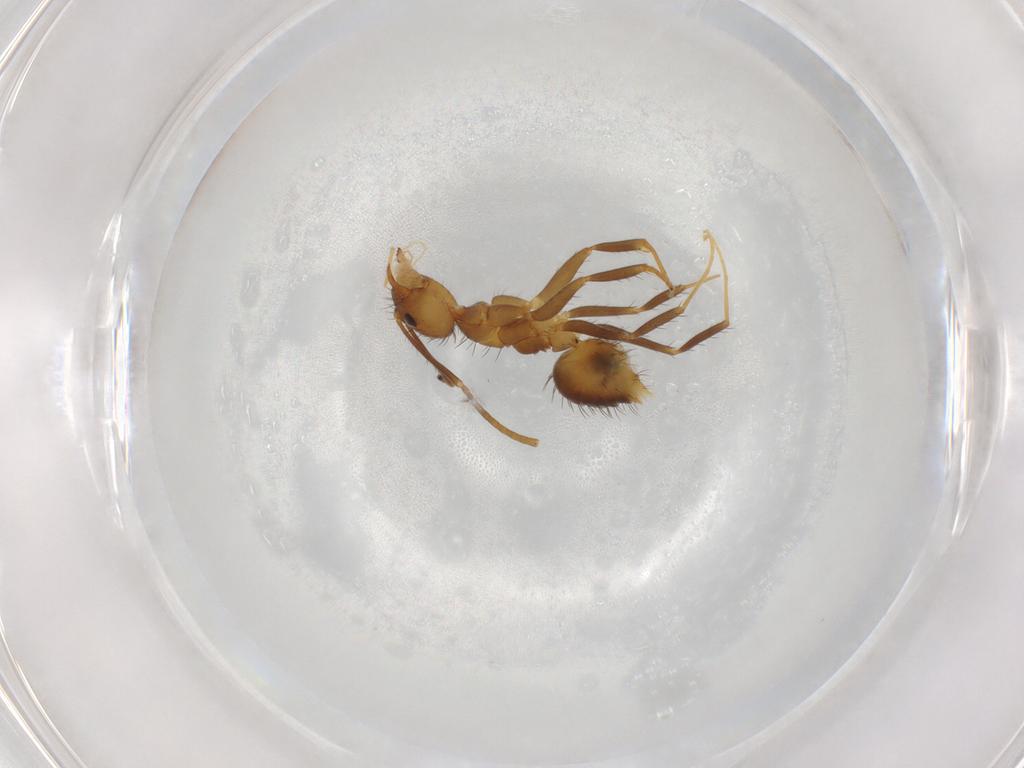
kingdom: Animalia
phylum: Arthropoda
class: Insecta
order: Hymenoptera
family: Formicidae
